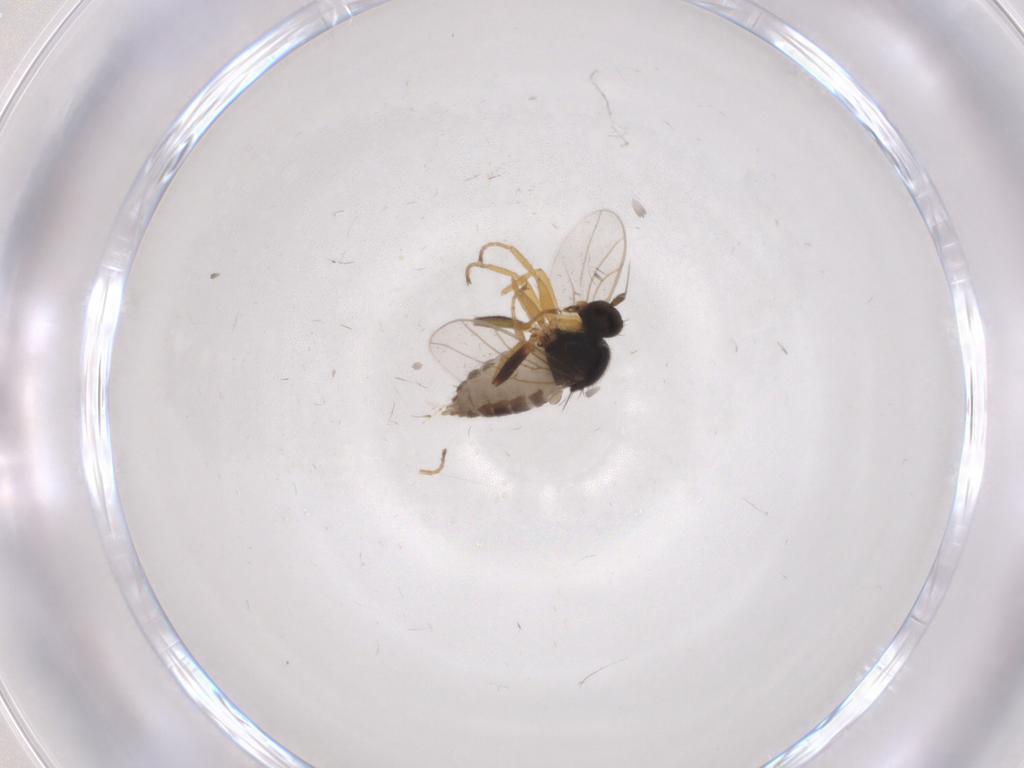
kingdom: Animalia
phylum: Arthropoda
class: Insecta
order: Diptera
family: Hybotidae
